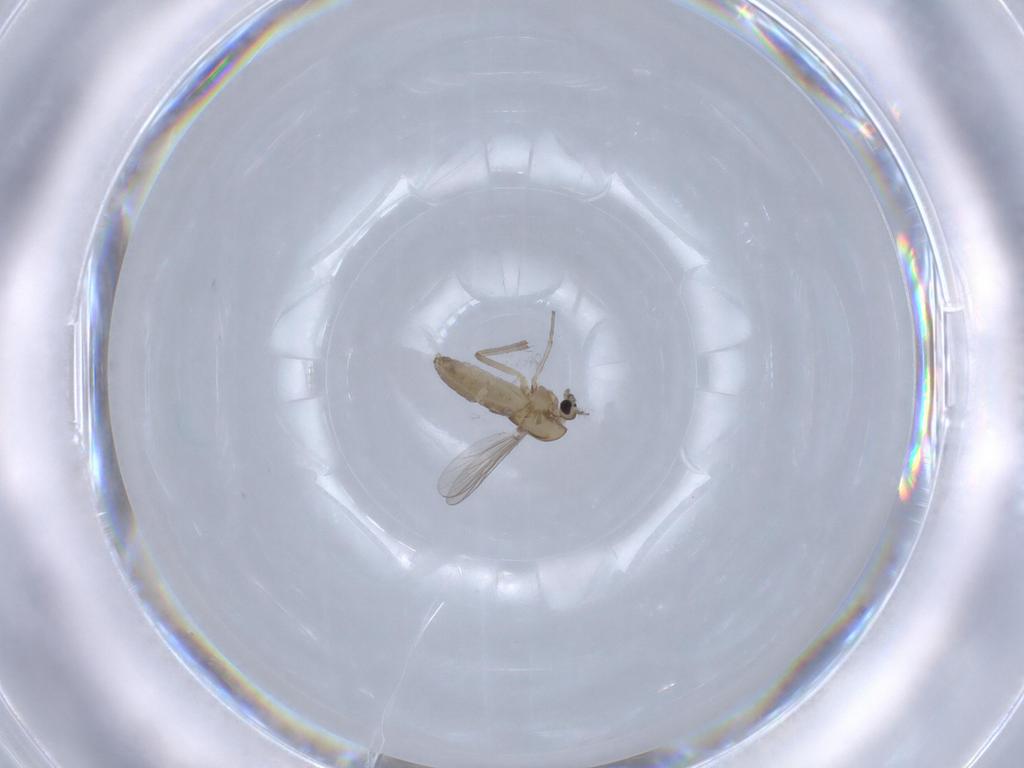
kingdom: Animalia
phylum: Arthropoda
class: Insecta
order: Diptera
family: Chironomidae
